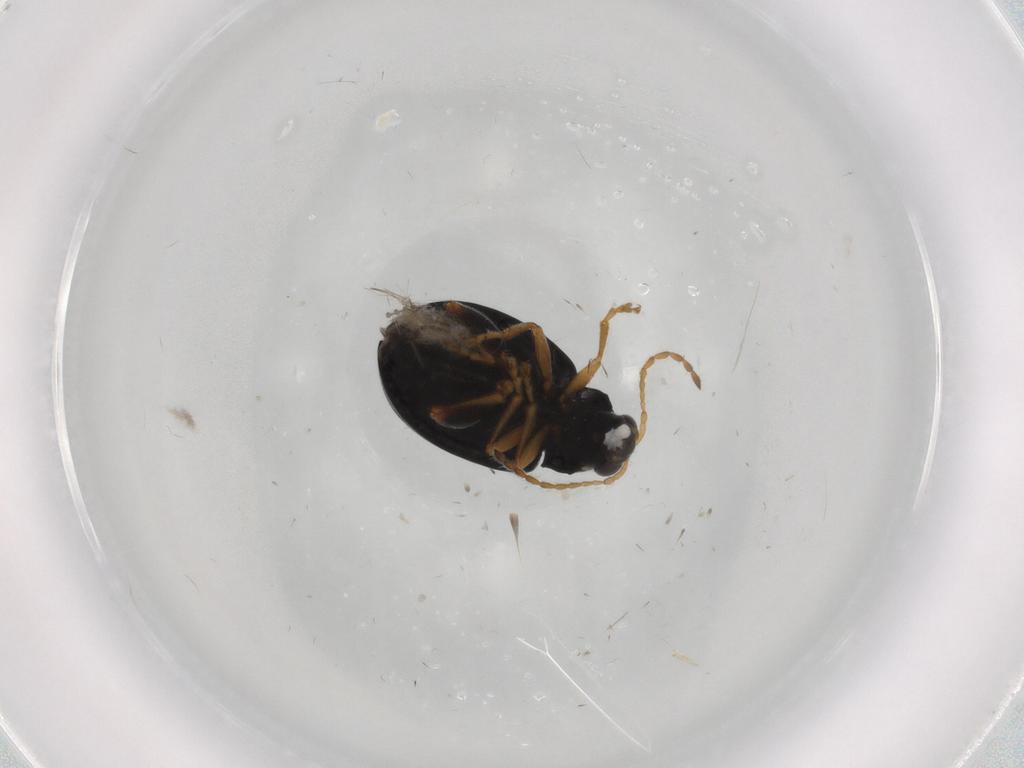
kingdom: Animalia
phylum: Arthropoda
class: Insecta
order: Coleoptera
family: Chrysomelidae
